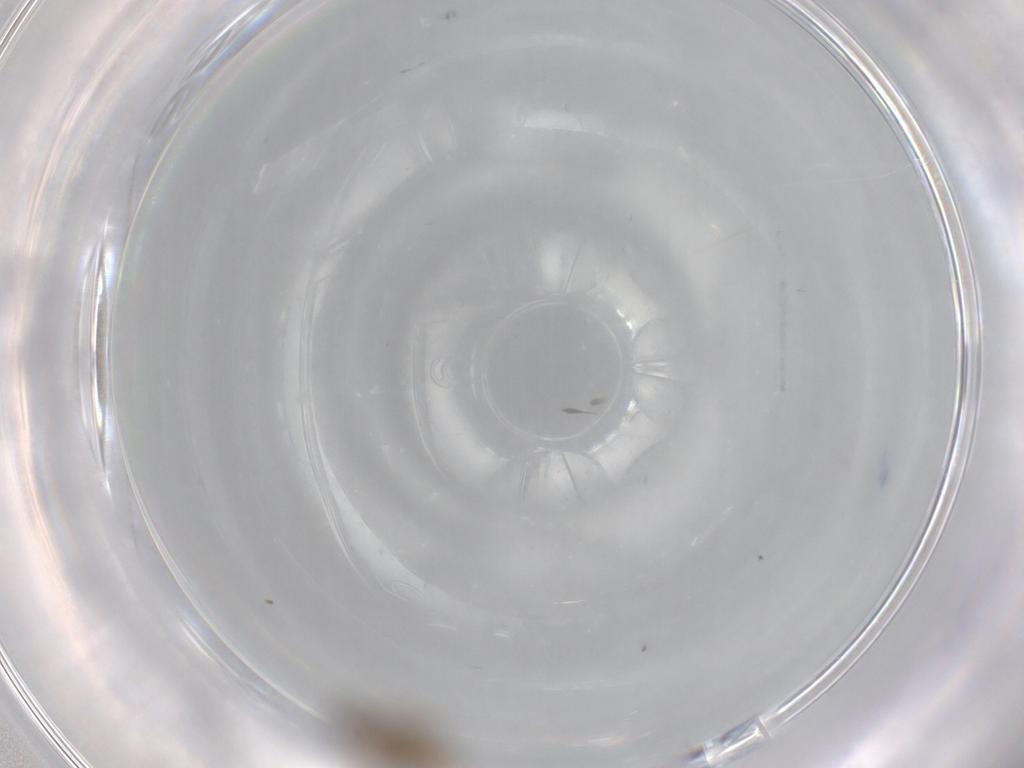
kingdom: Animalia
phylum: Arthropoda
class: Insecta
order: Diptera
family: Ceratopogonidae
